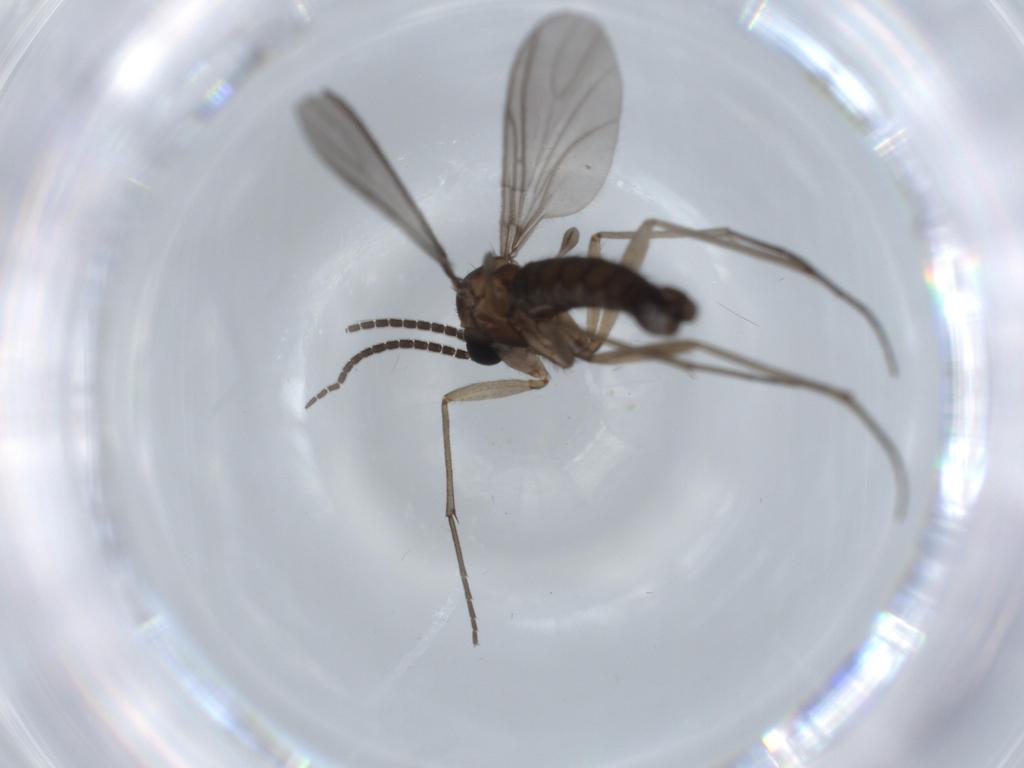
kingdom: Animalia
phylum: Arthropoda
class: Insecta
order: Diptera
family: Sciaridae
